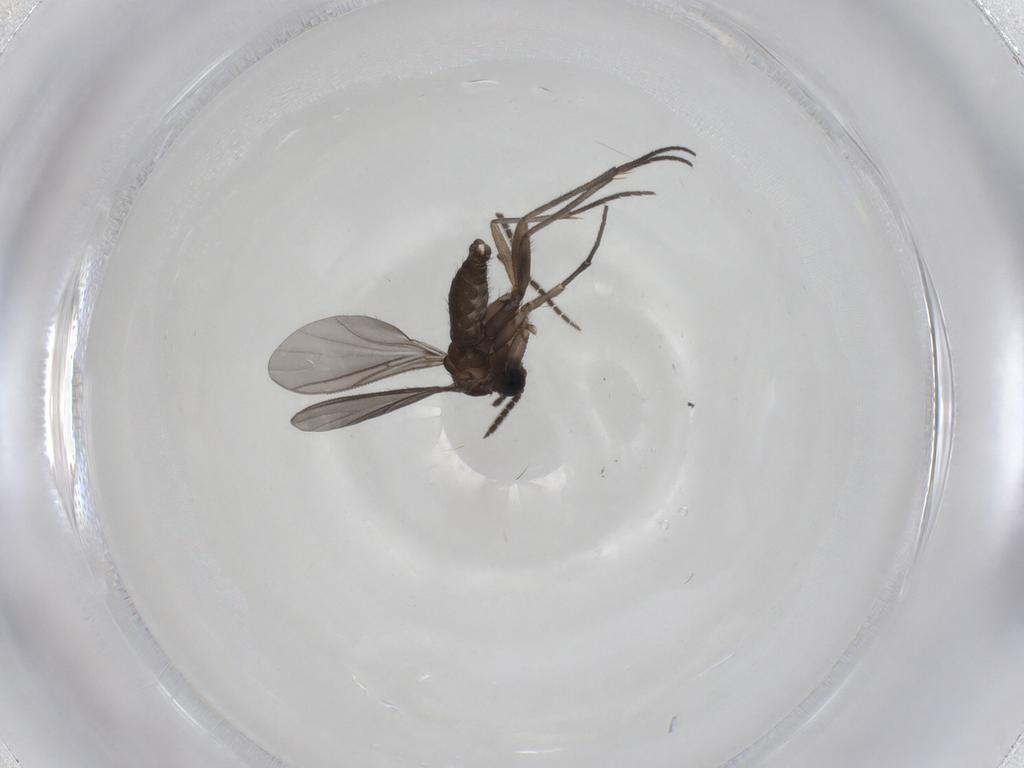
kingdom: Animalia
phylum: Arthropoda
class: Insecta
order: Diptera
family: Sciaridae
